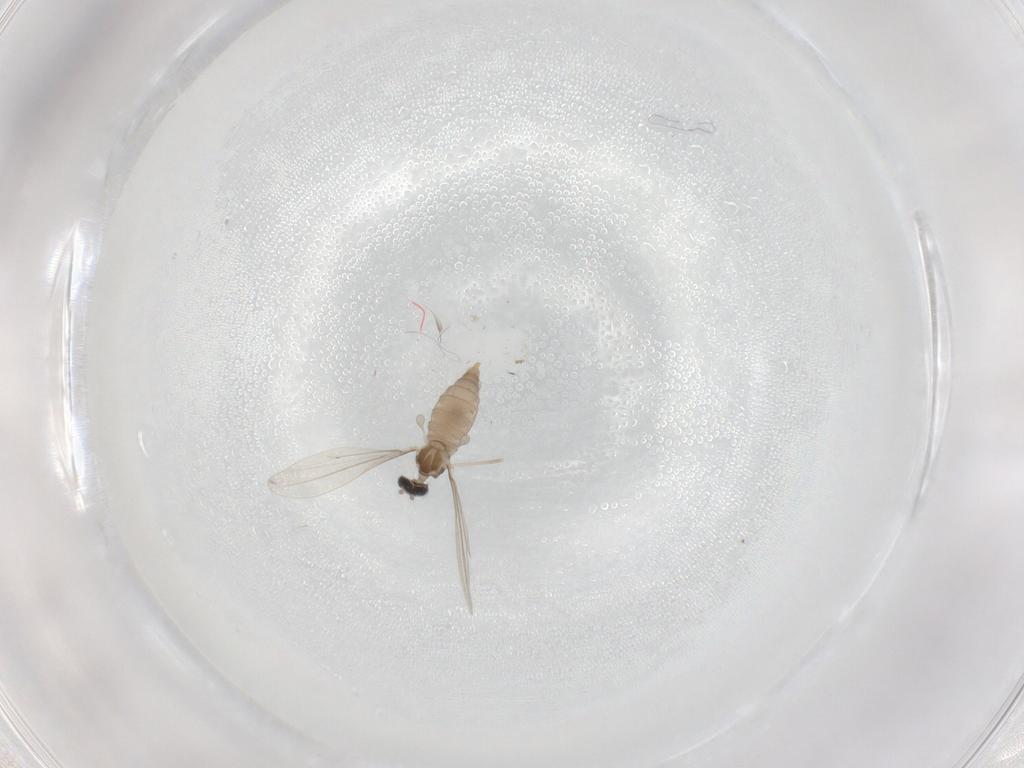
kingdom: Animalia
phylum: Arthropoda
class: Insecta
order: Diptera
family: Cecidomyiidae
